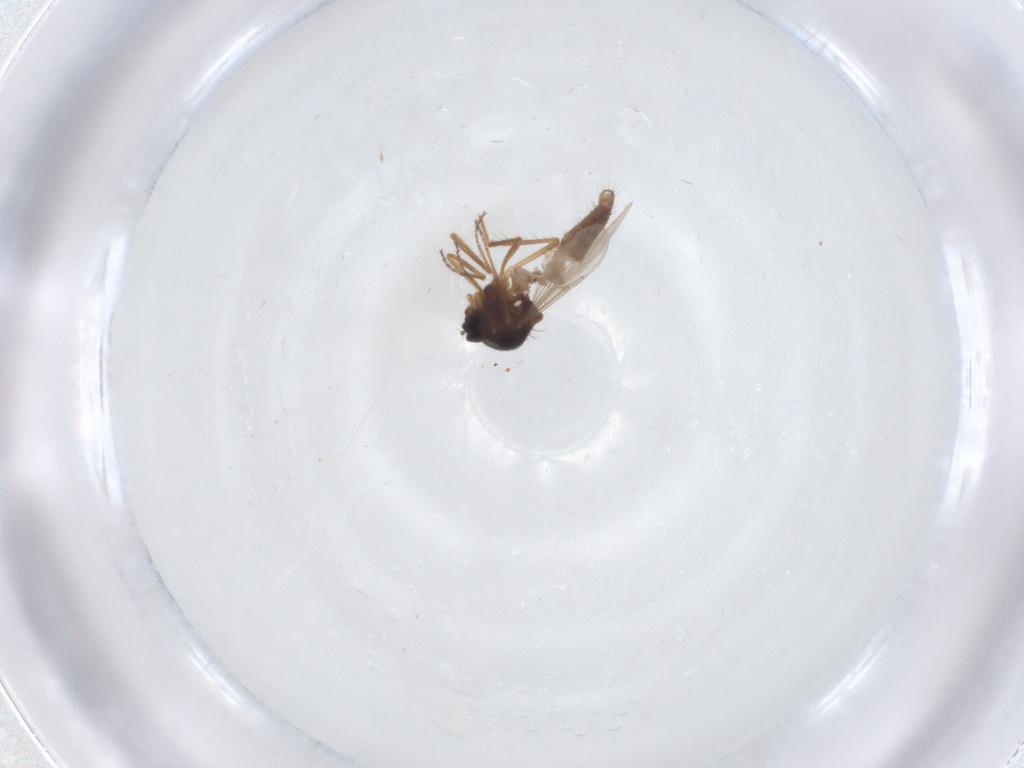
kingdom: Animalia
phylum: Arthropoda
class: Insecta
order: Diptera
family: Ceratopogonidae
